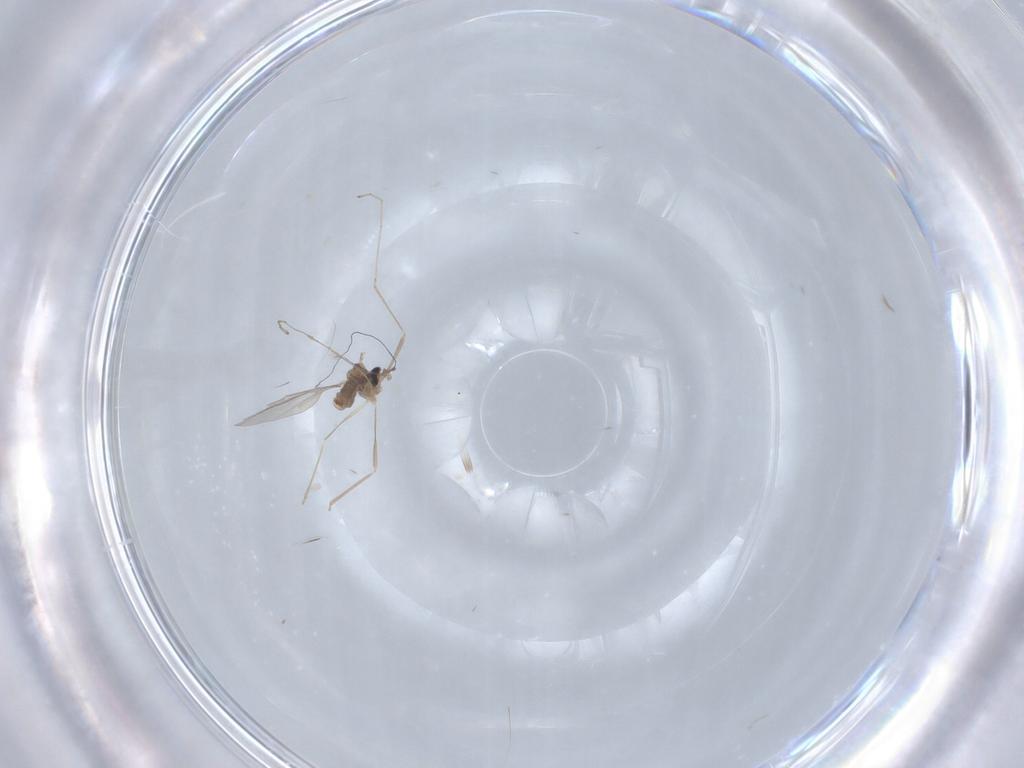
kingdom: Animalia
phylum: Arthropoda
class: Insecta
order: Diptera
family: Cecidomyiidae
